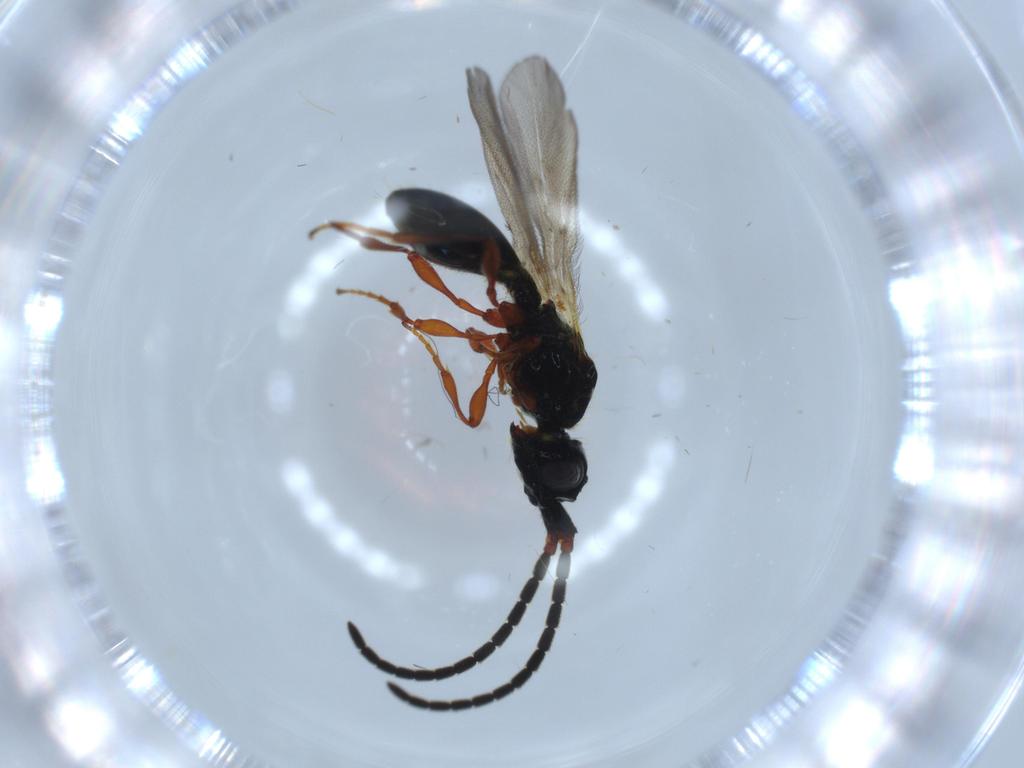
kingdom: Animalia
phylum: Arthropoda
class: Insecta
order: Hymenoptera
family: Diapriidae
